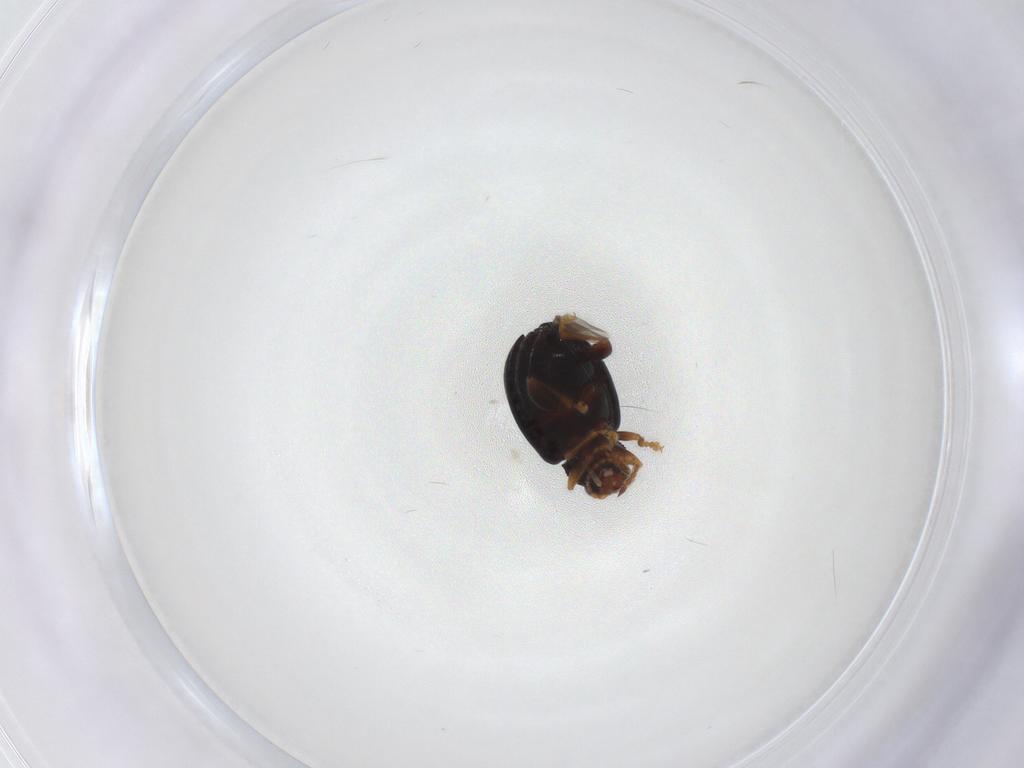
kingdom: Animalia
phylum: Arthropoda
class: Insecta
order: Coleoptera
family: Chrysomelidae
